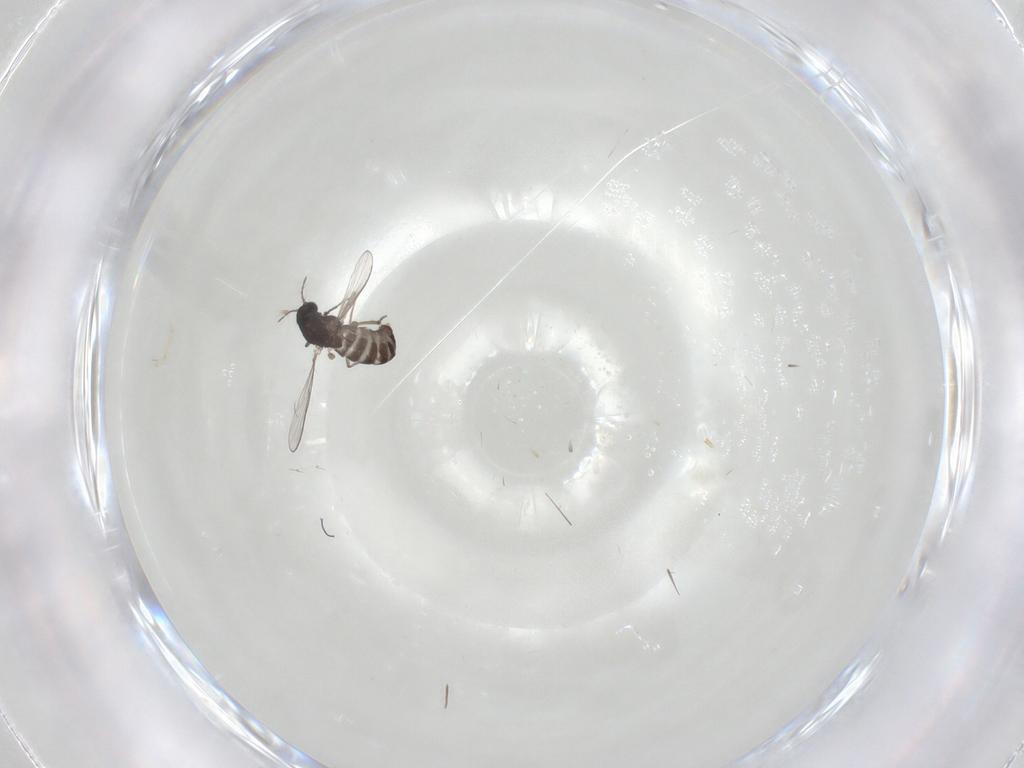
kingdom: Animalia
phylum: Arthropoda
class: Insecta
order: Diptera
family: Chironomidae
